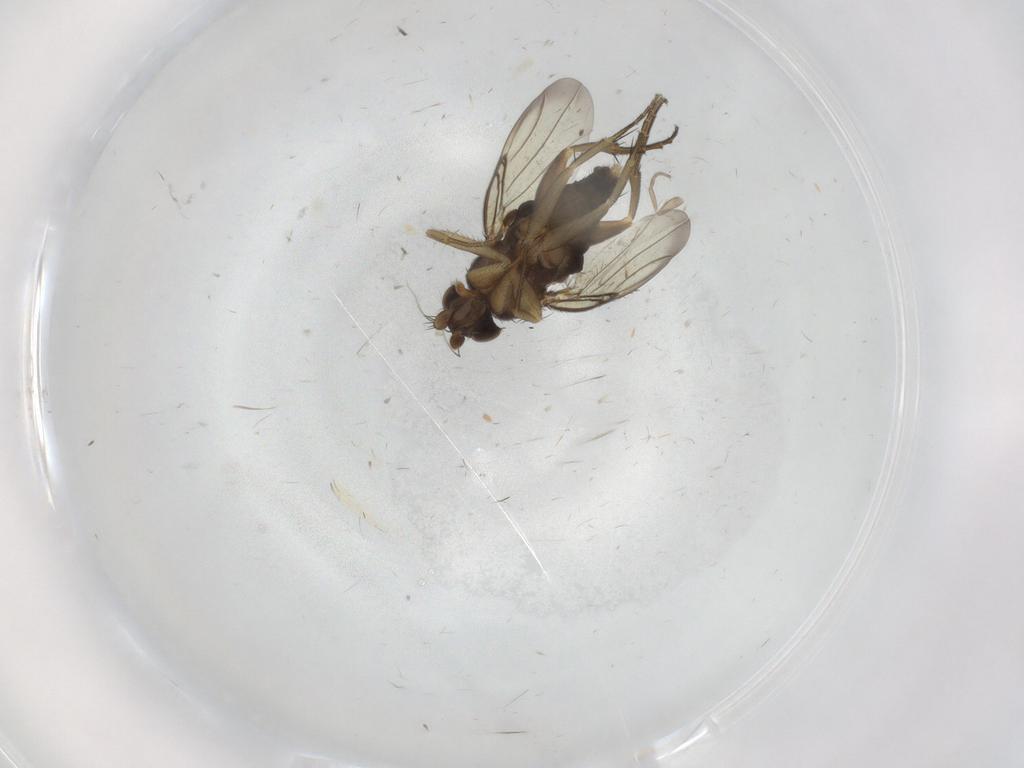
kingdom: Animalia
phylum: Arthropoda
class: Insecta
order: Diptera
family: Phoridae
